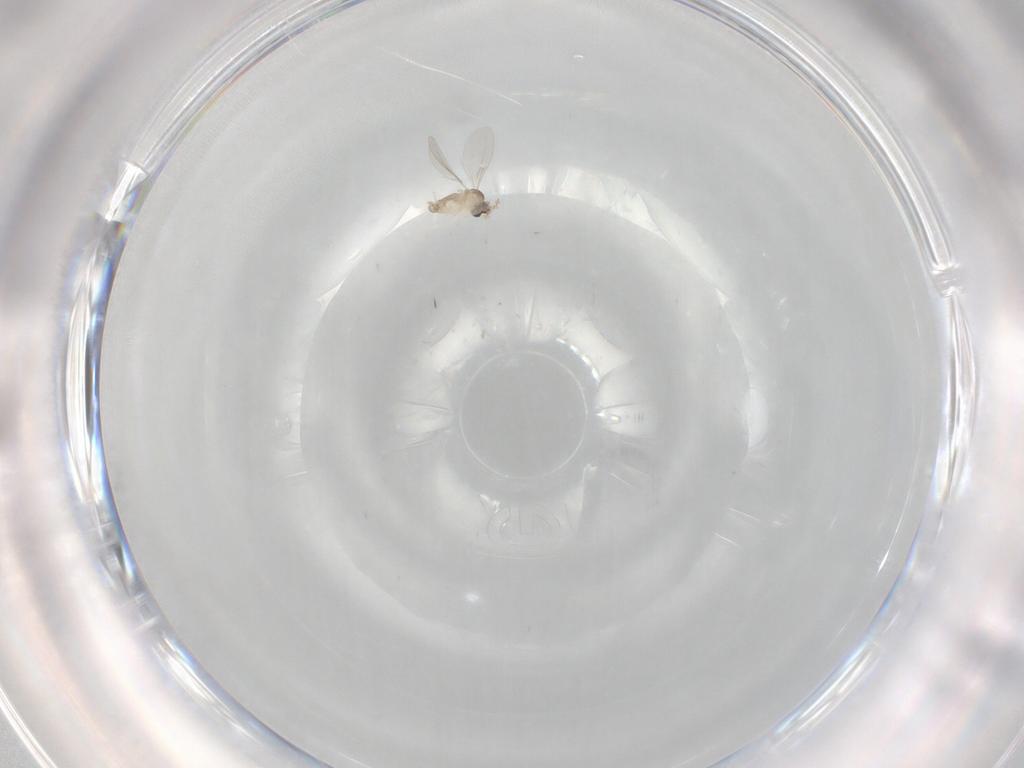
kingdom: Animalia
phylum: Arthropoda
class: Insecta
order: Diptera
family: Cecidomyiidae
